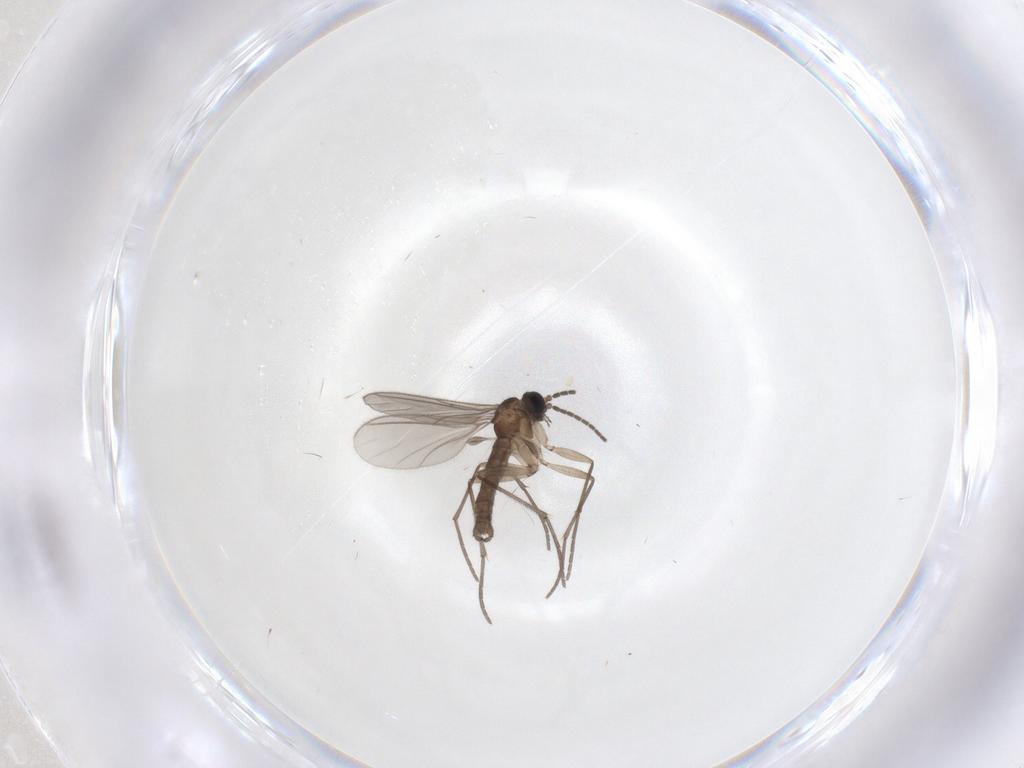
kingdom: Animalia
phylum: Arthropoda
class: Insecta
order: Diptera
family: Sciaridae
